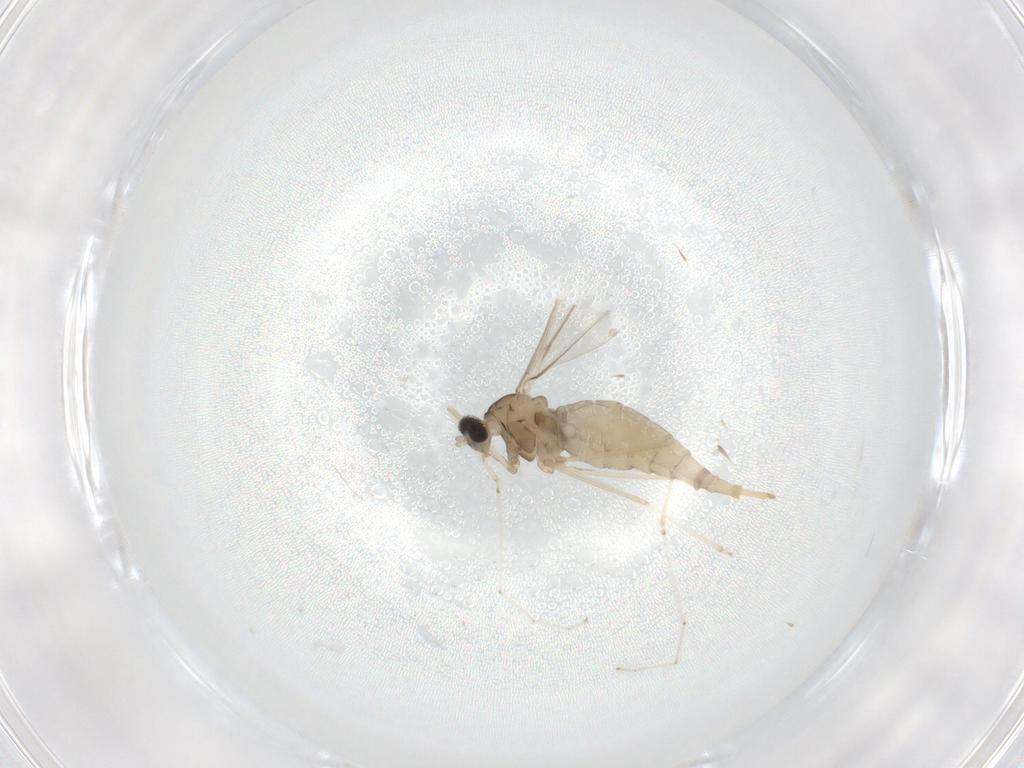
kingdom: Animalia
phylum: Arthropoda
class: Insecta
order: Diptera
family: Cecidomyiidae
